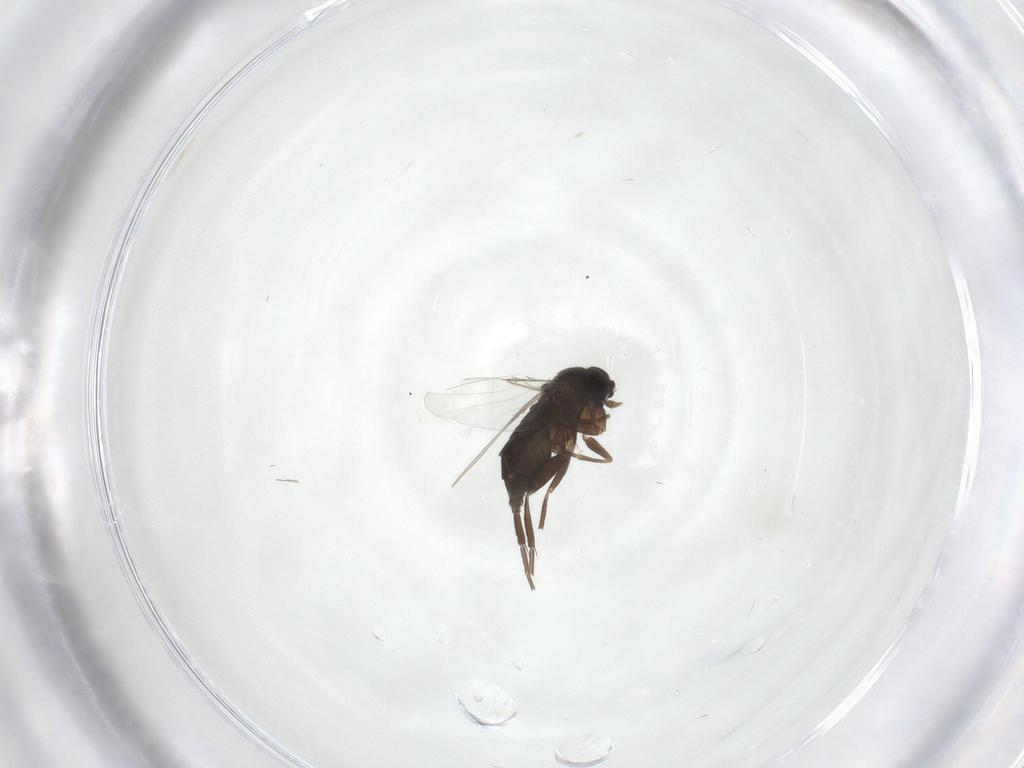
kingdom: Animalia
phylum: Arthropoda
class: Insecta
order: Diptera
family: Phoridae
